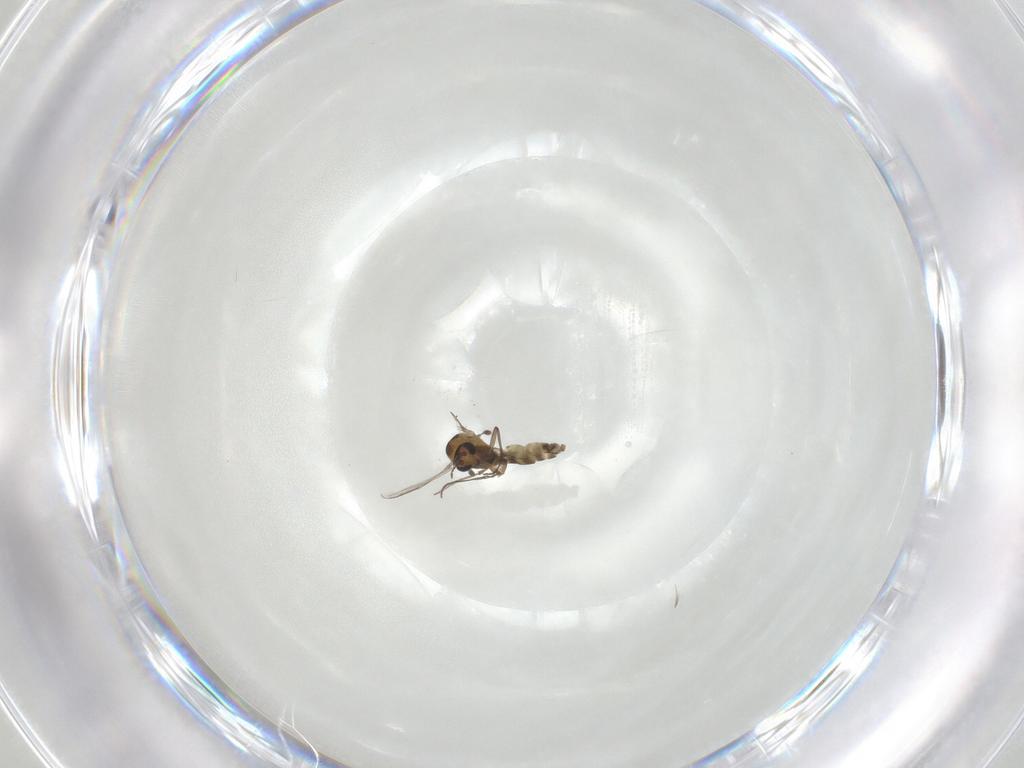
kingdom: Animalia
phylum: Arthropoda
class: Insecta
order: Diptera
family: Chironomidae
